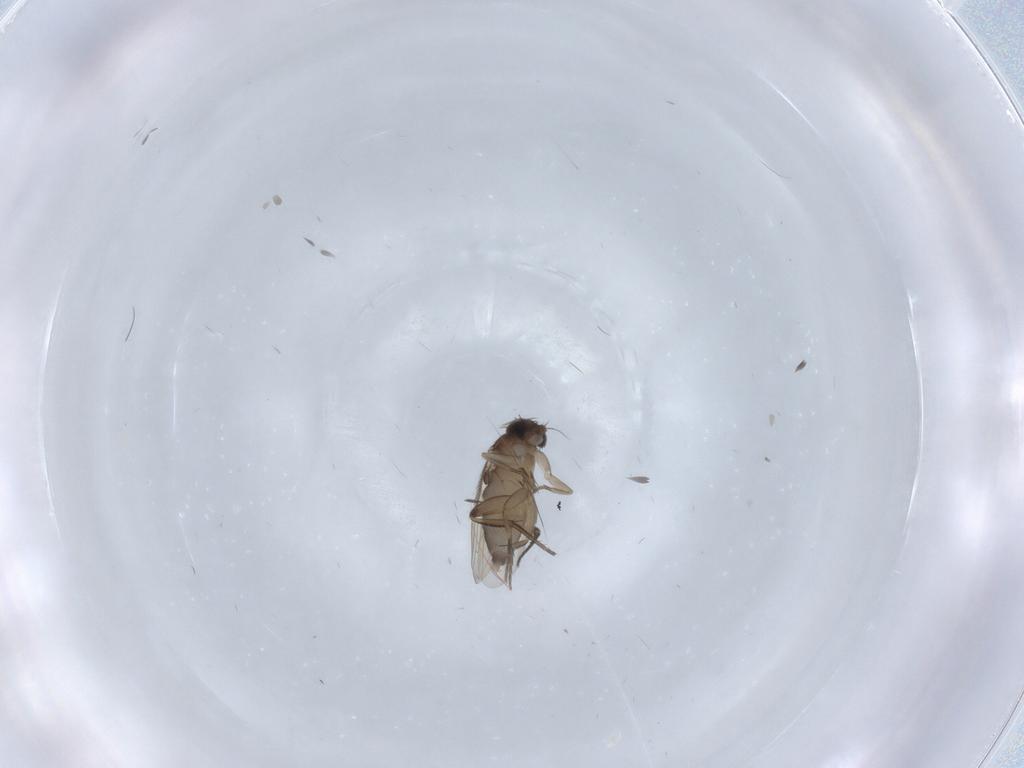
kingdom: Animalia
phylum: Arthropoda
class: Insecta
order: Diptera
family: Phoridae
